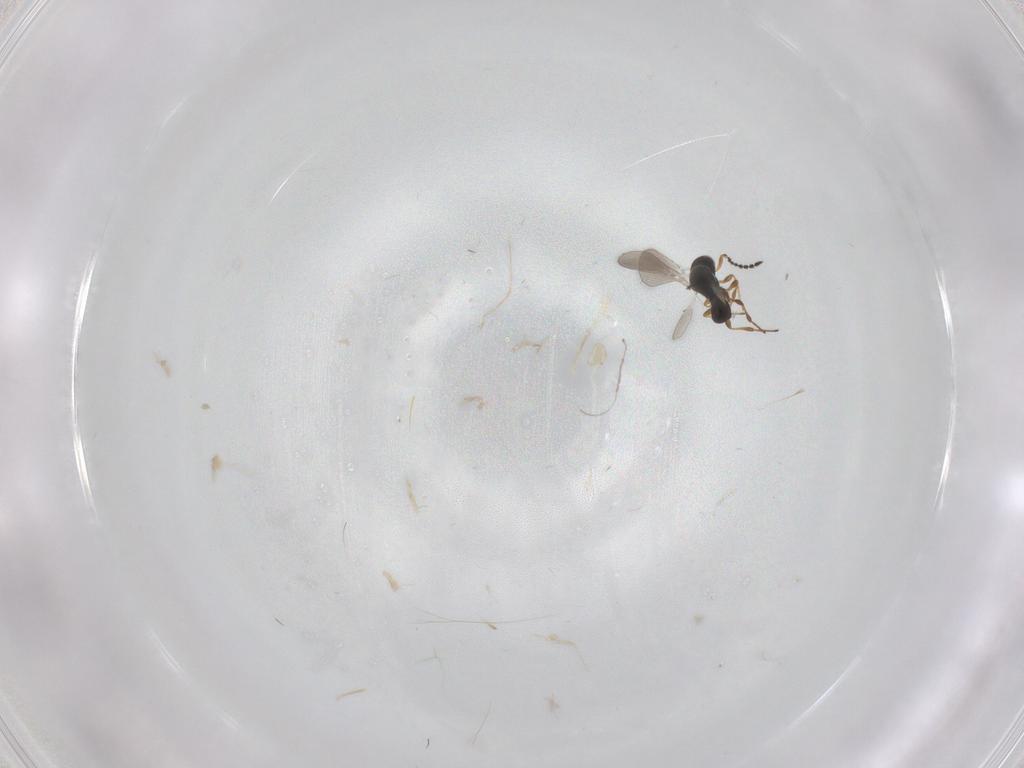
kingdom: Animalia
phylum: Arthropoda
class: Insecta
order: Hymenoptera
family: Platygastridae
